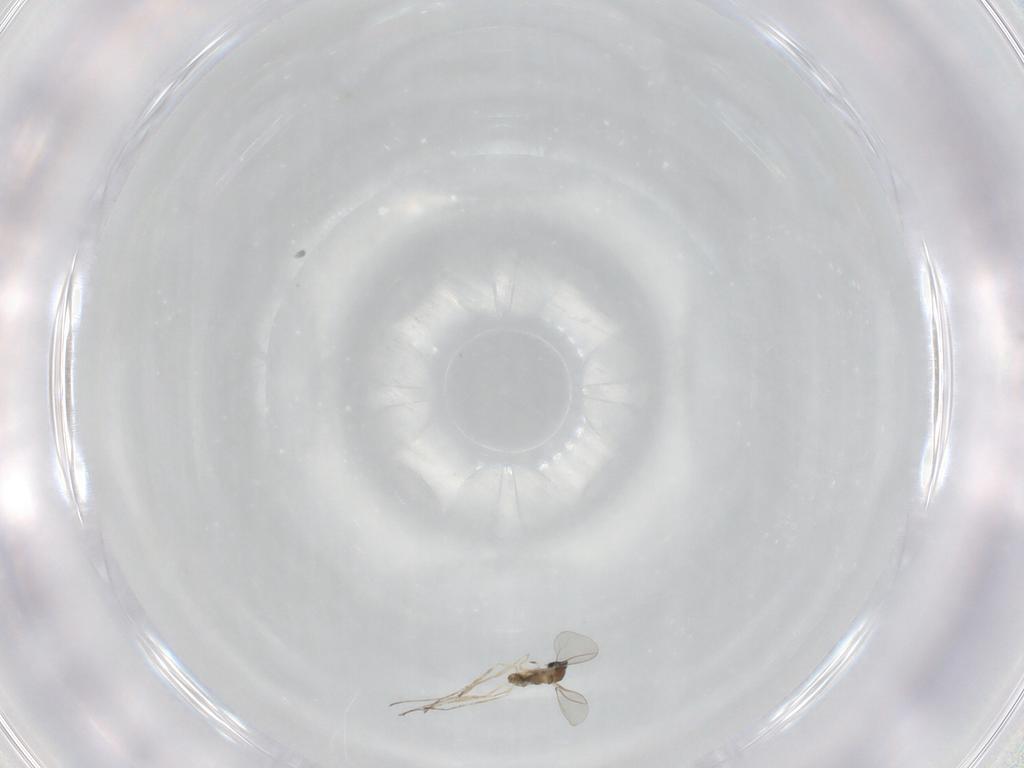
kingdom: Animalia
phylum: Arthropoda
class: Insecta
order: Diptera
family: Cecidomyiidae
